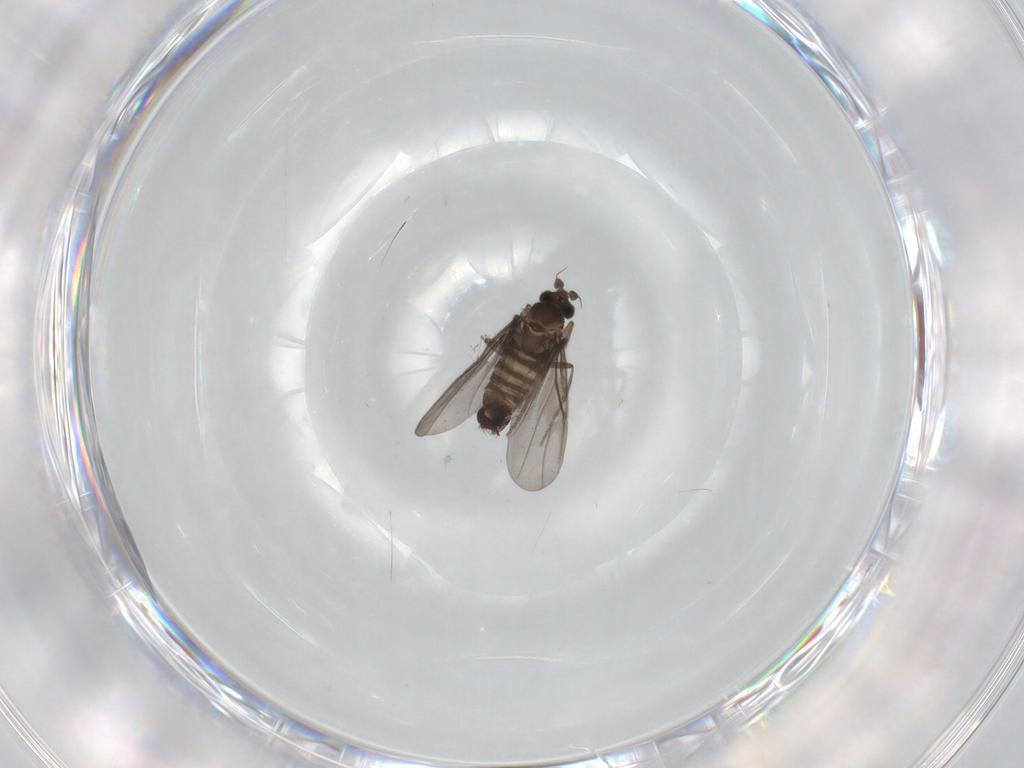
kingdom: Animalia
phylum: Arthropoda
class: Insecta
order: Diptera
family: Phoridae
